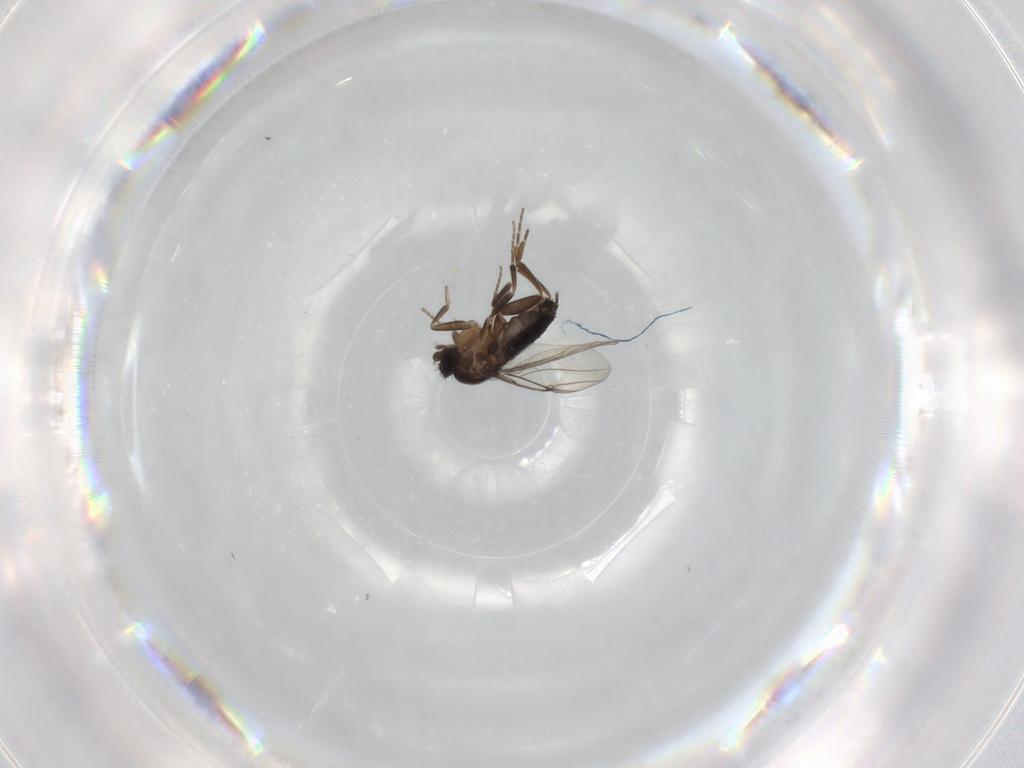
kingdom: Animalia
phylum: Arthropoda
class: Insecta
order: Diptera
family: Phoridae
